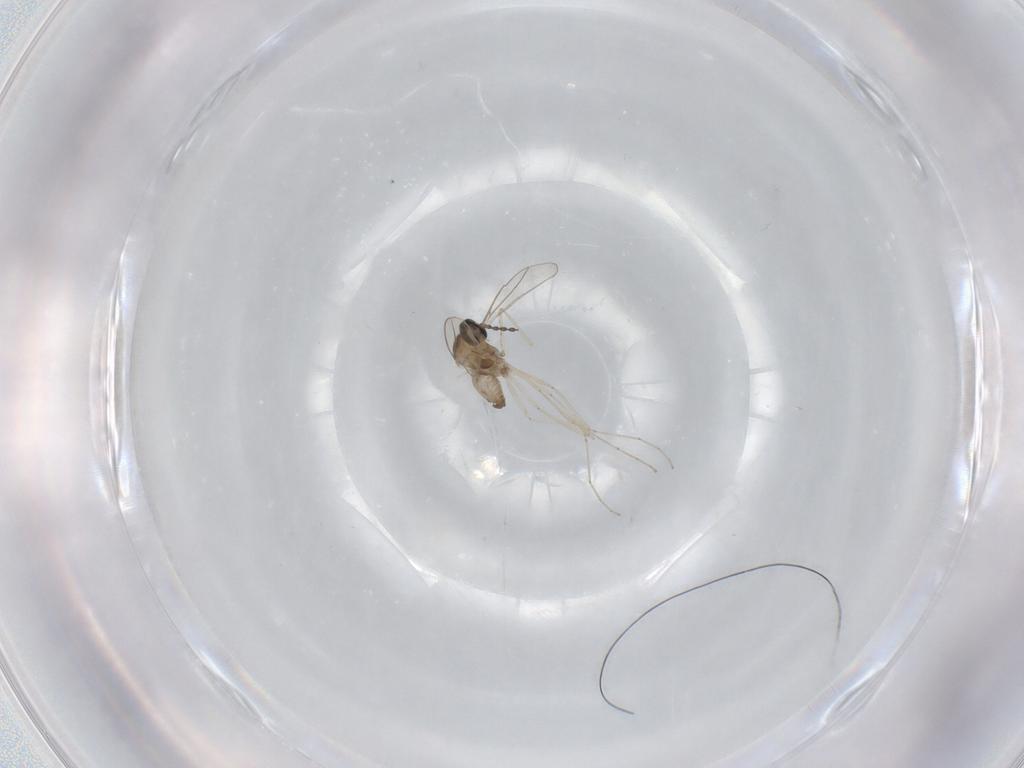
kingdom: Animalia
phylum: Arthropoda
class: Insecta
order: Diptera
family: Cecidomyiidae
